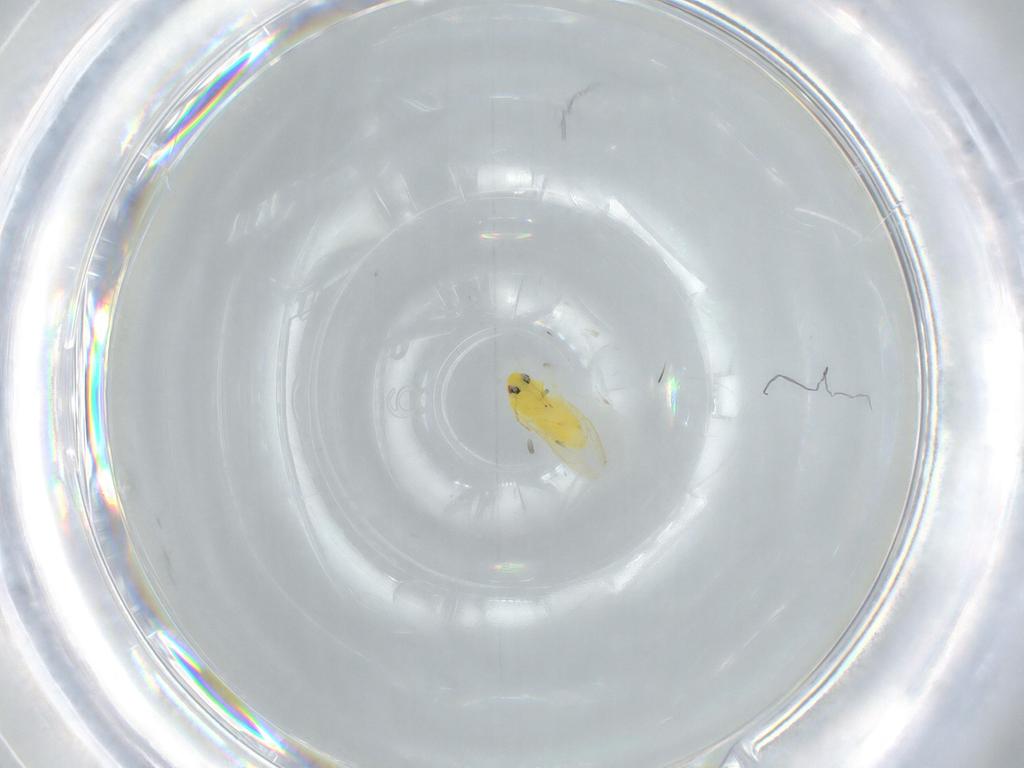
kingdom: Animalia
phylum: Arthropoda
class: Insecta
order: Hemiptera
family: Aleyrodidae
